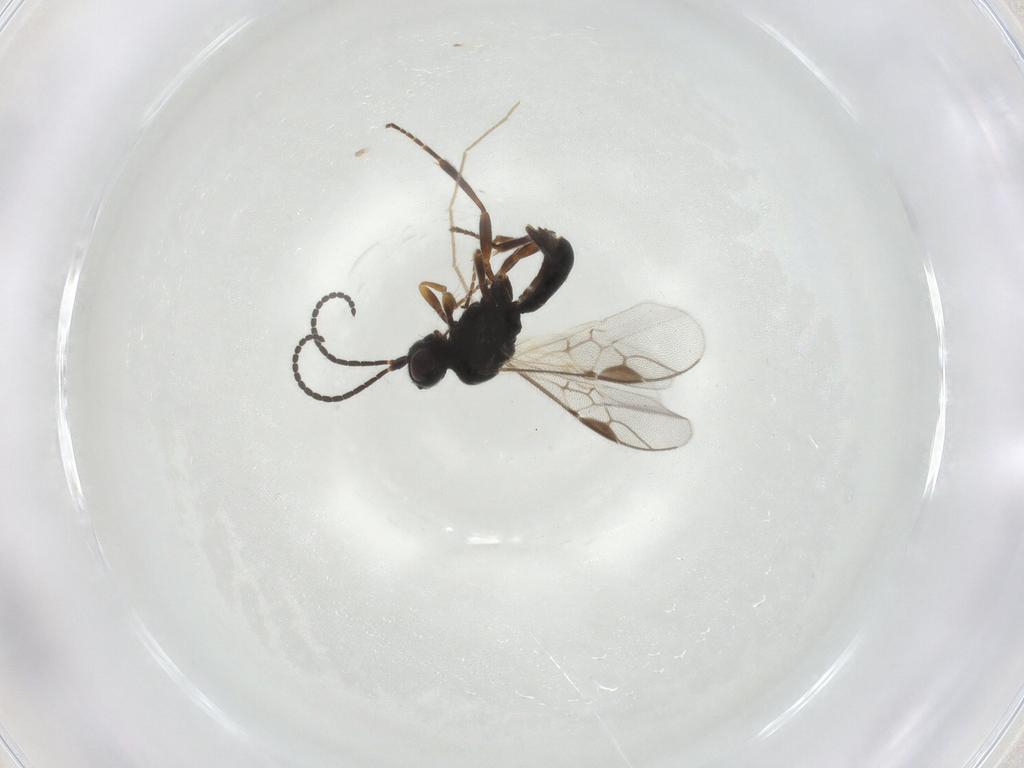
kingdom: Animalia
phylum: Arthropoda
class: Insecta
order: Hymenoptera
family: Braconidae
